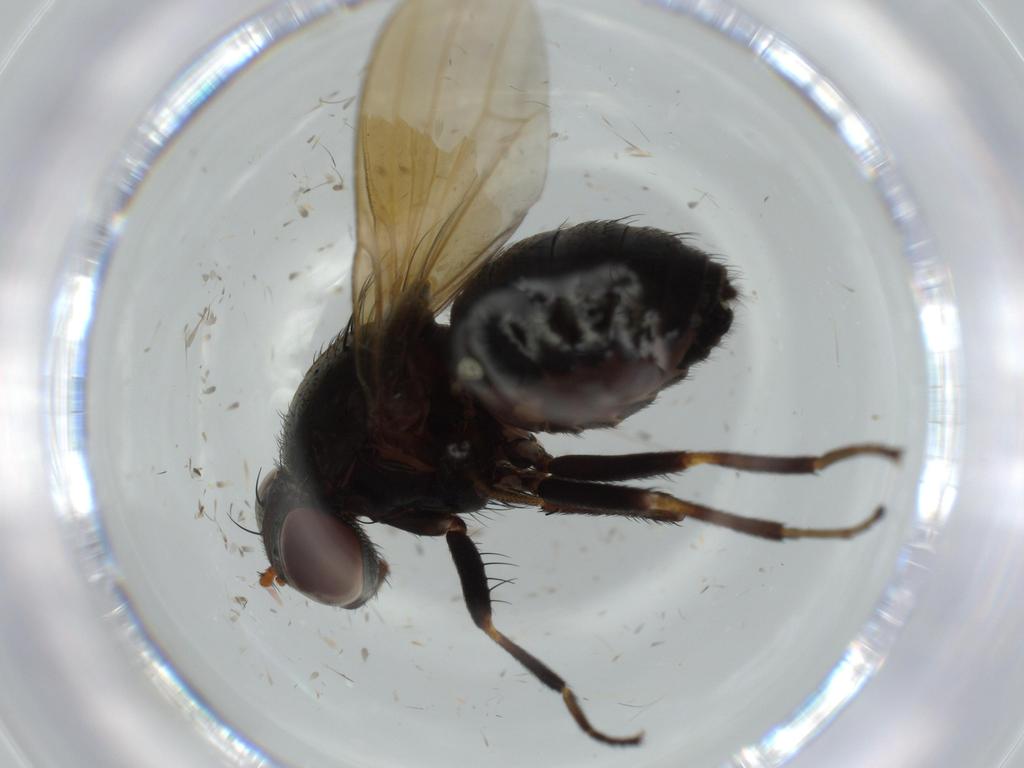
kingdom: Animalia
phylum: Arthropoda
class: Insecta
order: Diptera
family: Lauxaniidae
